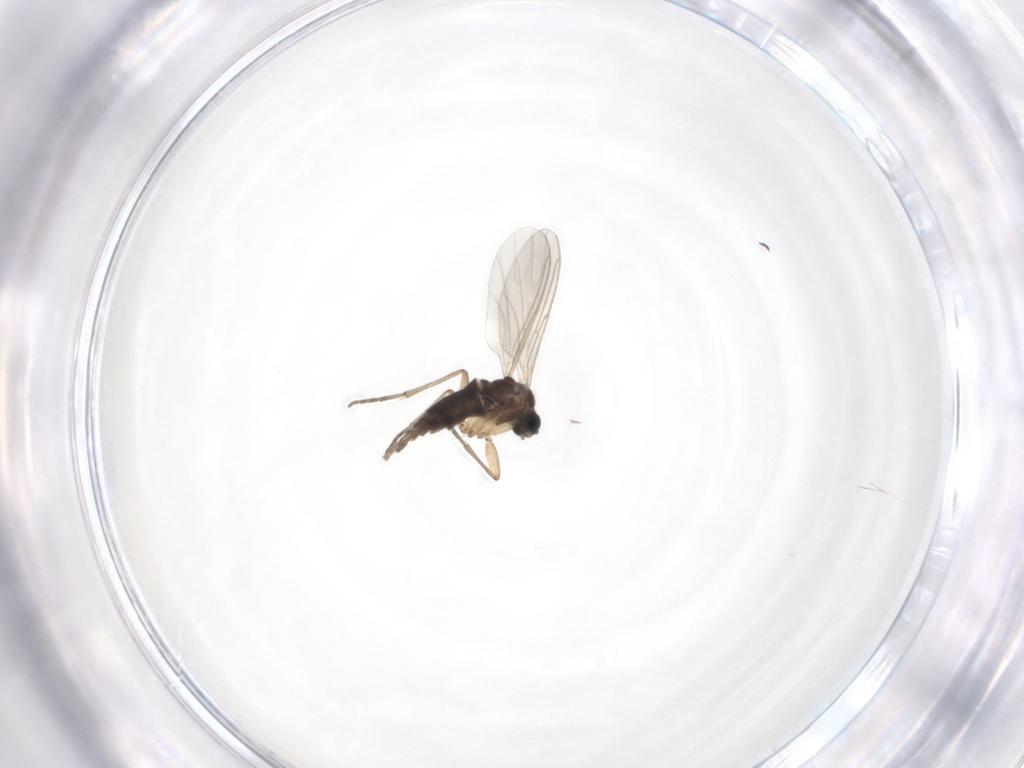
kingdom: Animalia
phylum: Arthropoda
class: Insecta
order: Diptera
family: Sciaridae
